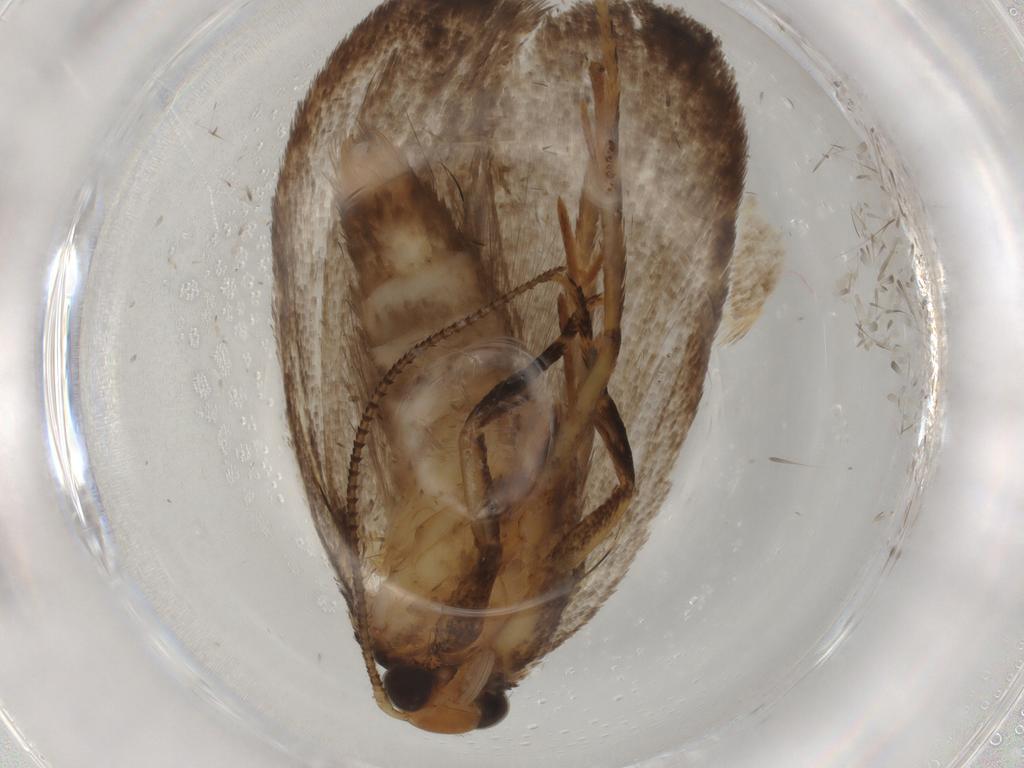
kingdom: Animalia
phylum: Arthropoda
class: Insecta
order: Lepidoptera
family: Oecophoridae
